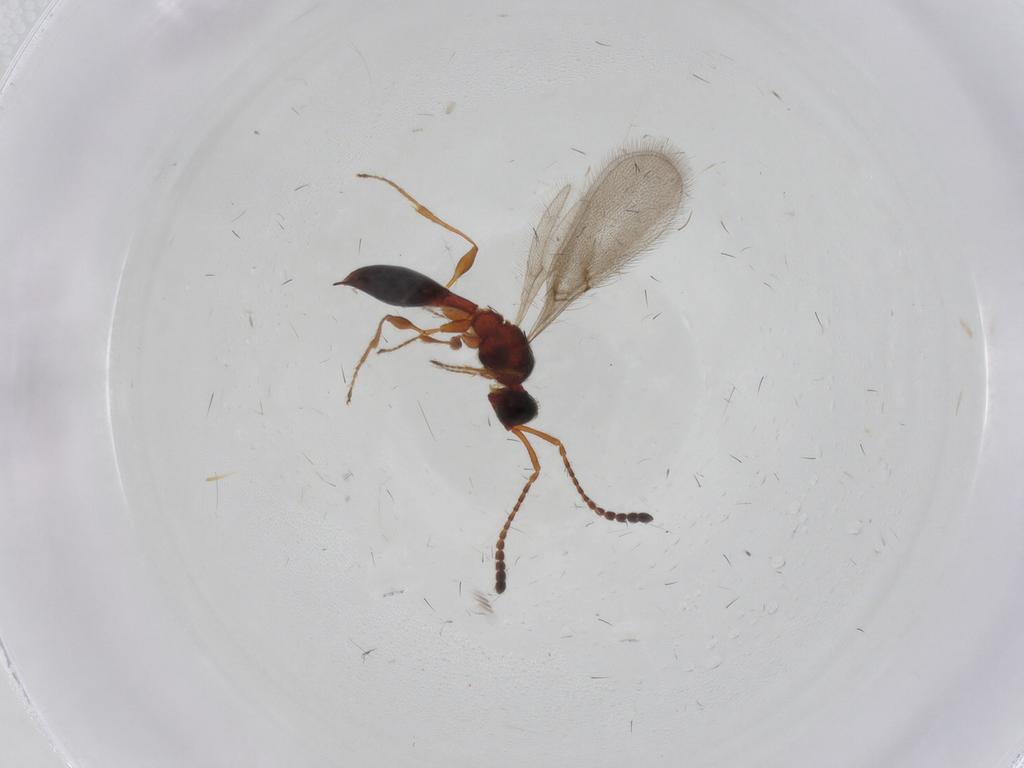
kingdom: Animalia
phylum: Arthropoda
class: Insecta
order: Hymenoptera
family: Diapriidae
